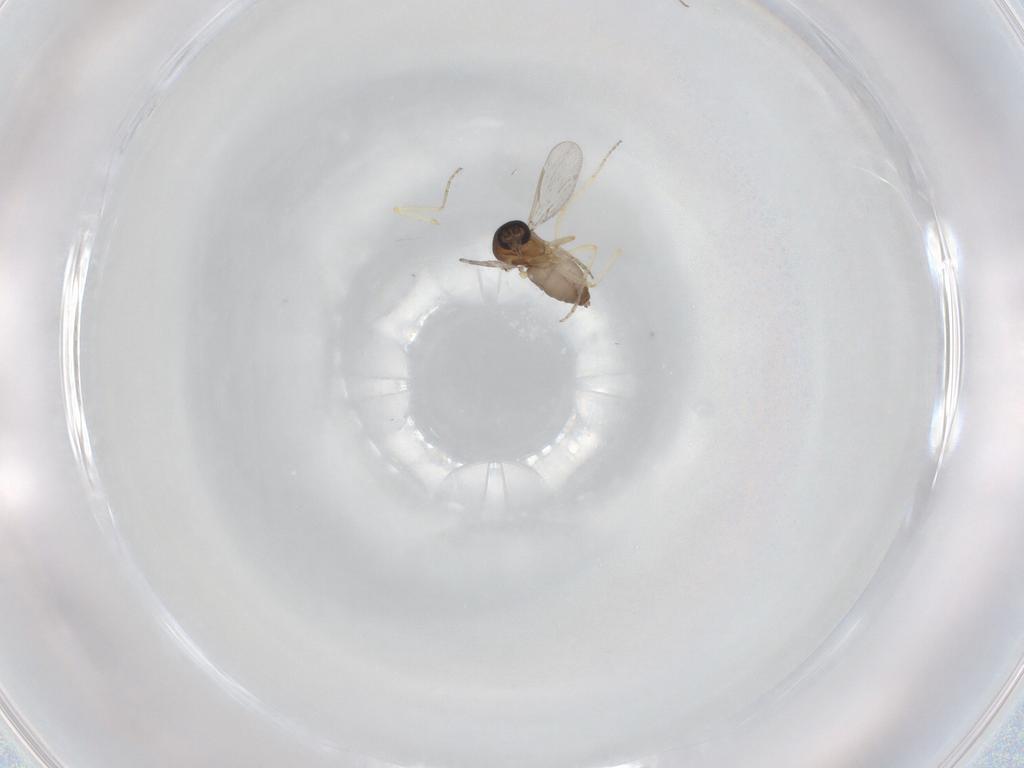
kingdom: Animalia
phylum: Arthropoda
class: Insecta
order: Diptera
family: Ceratopogonidae
